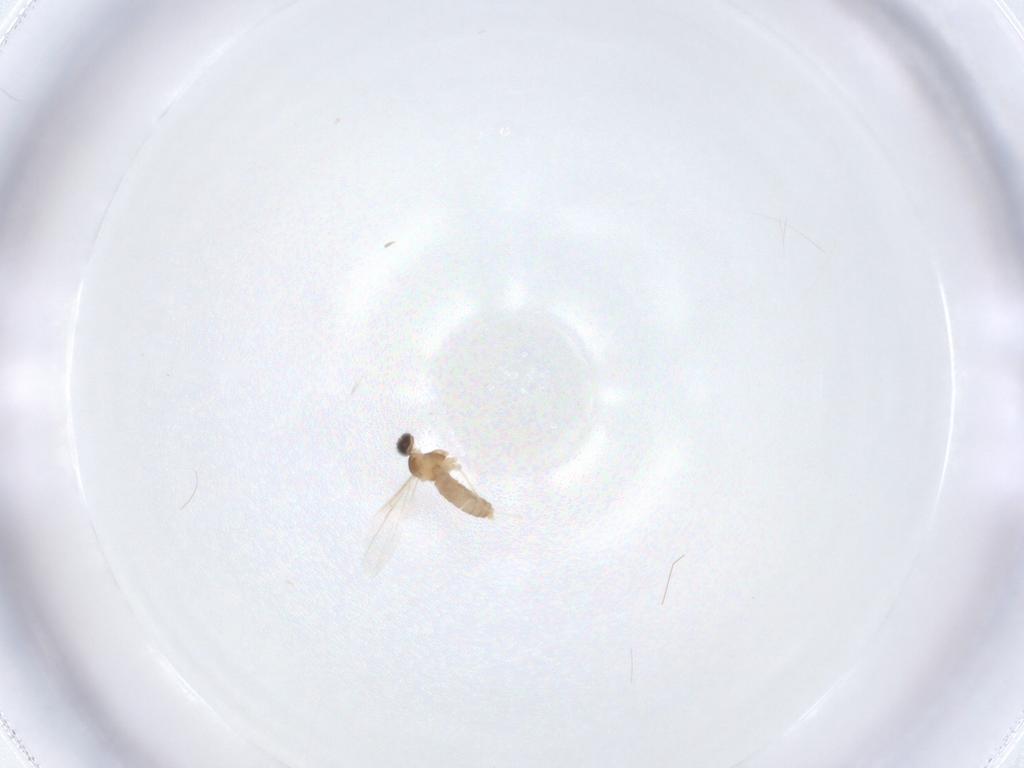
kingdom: Animalia
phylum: Arthropoda
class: Insecta
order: Diptera
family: Cecidomyiidae
